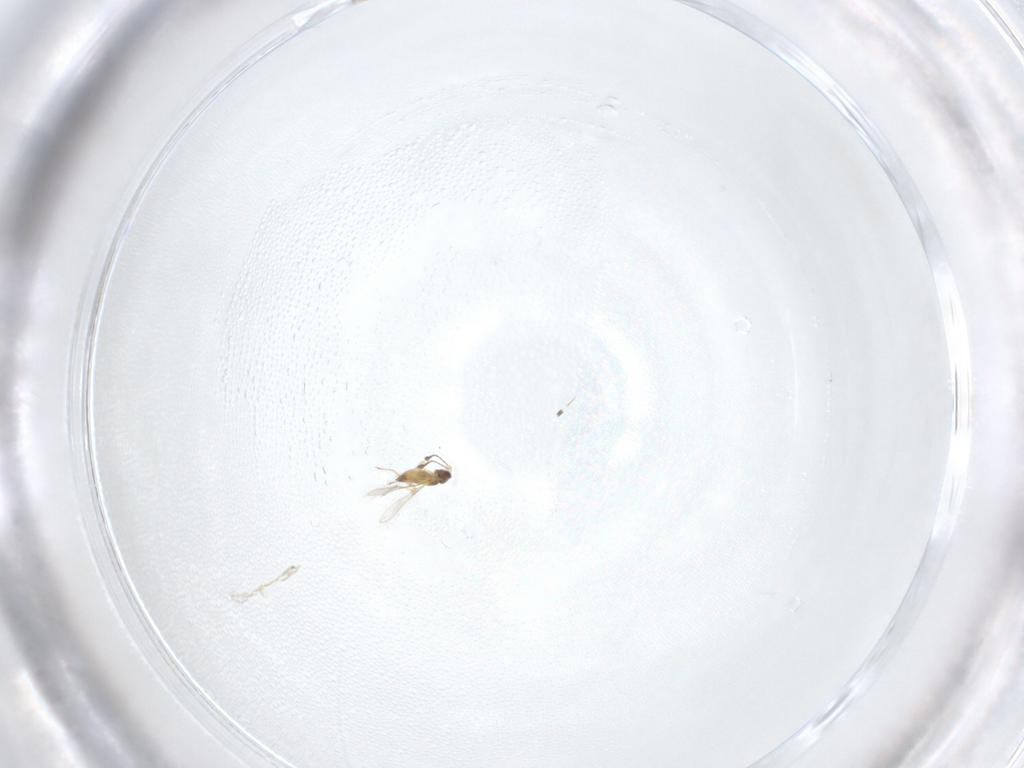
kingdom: Animalia
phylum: Arthropoda
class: Insecta
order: Hymenoptera
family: Mymaridae
